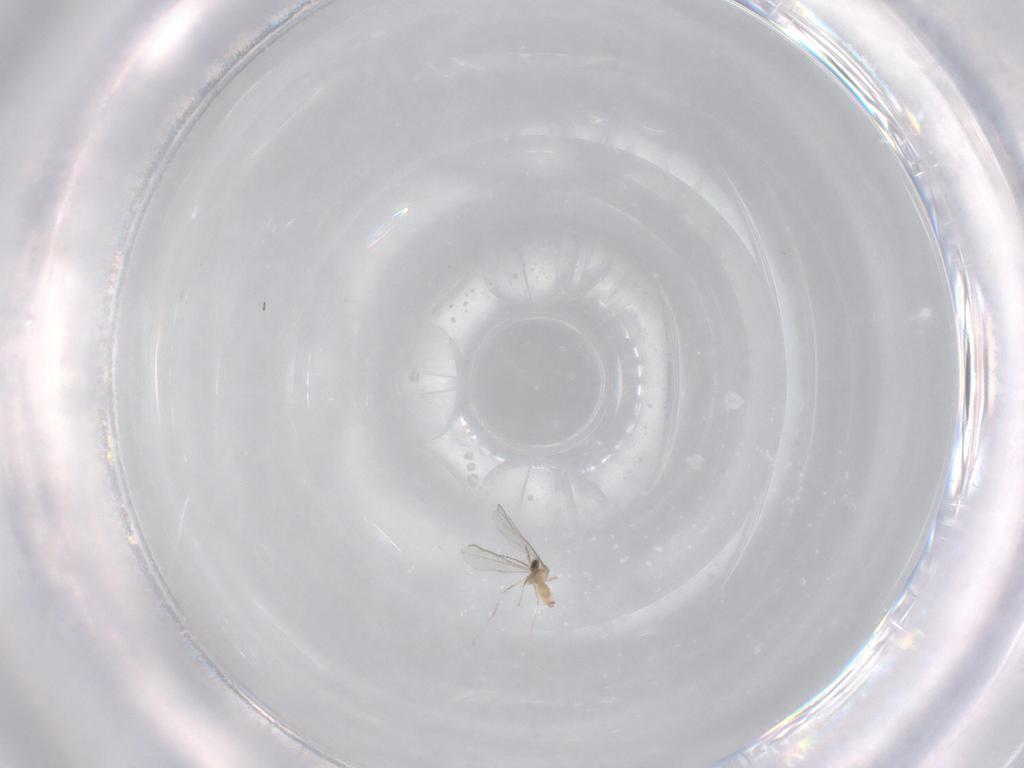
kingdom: Animalia
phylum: Arthropoda
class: Insecta
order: Diptera
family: Cecidomyiidae
